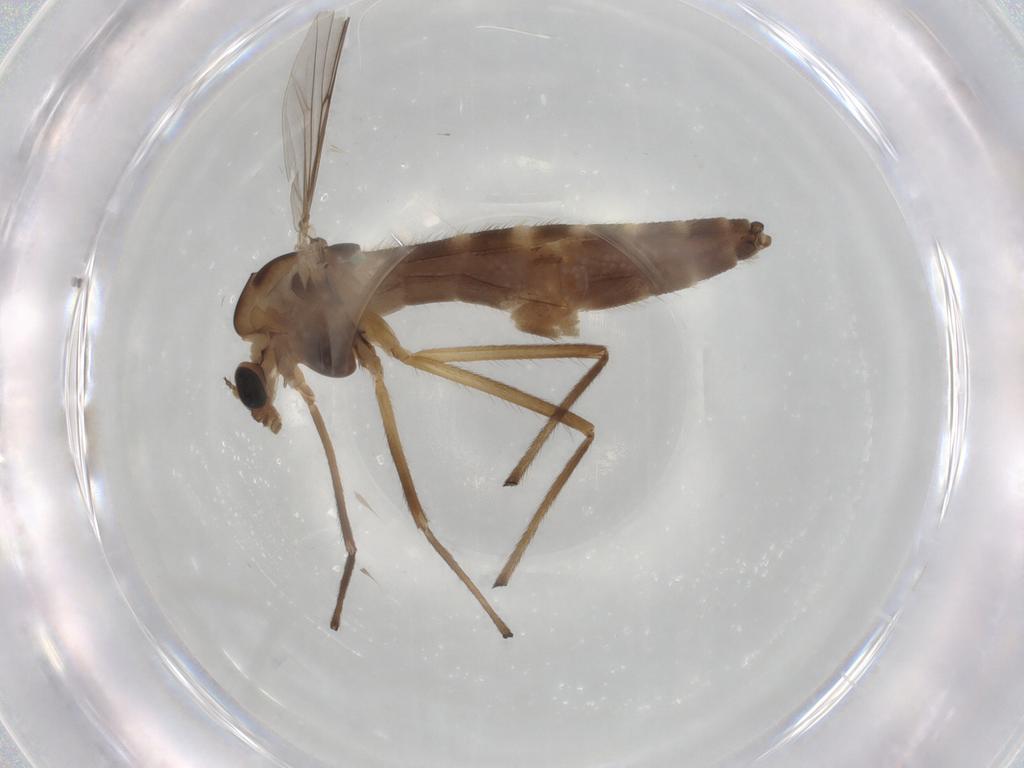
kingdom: Animalia
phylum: Arthropoda
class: Insecta
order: Diptera
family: Chironomidae
